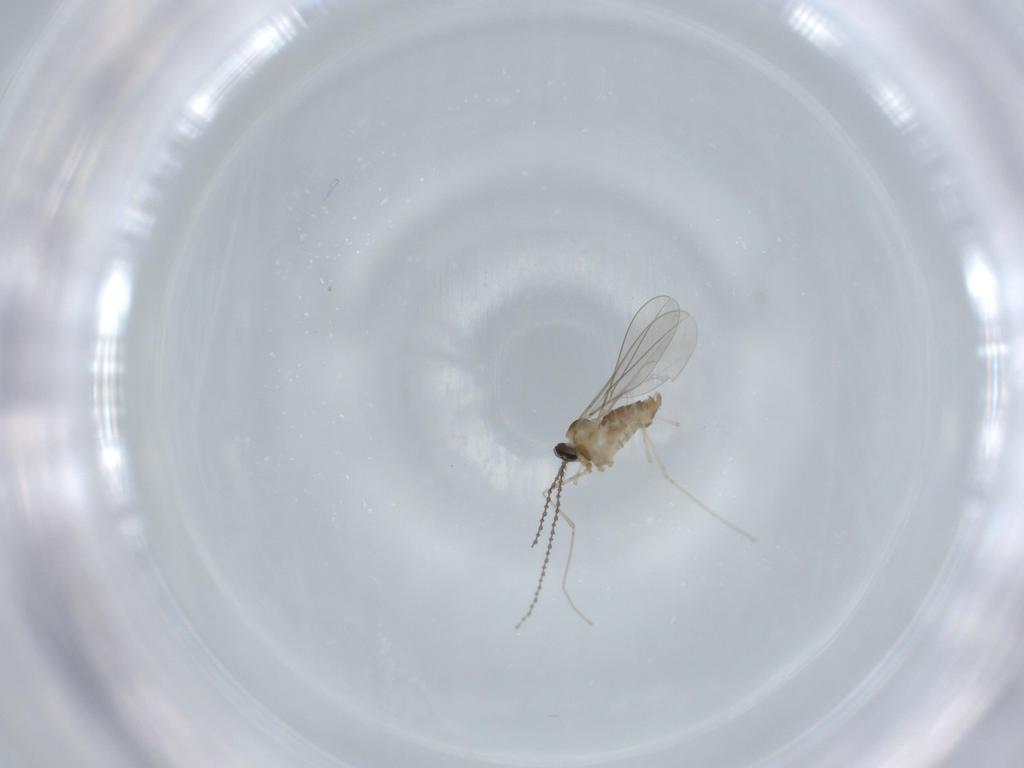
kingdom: Animalia
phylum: Arthropoda
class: Insecta
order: Diptera
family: Cecidomyiidae
